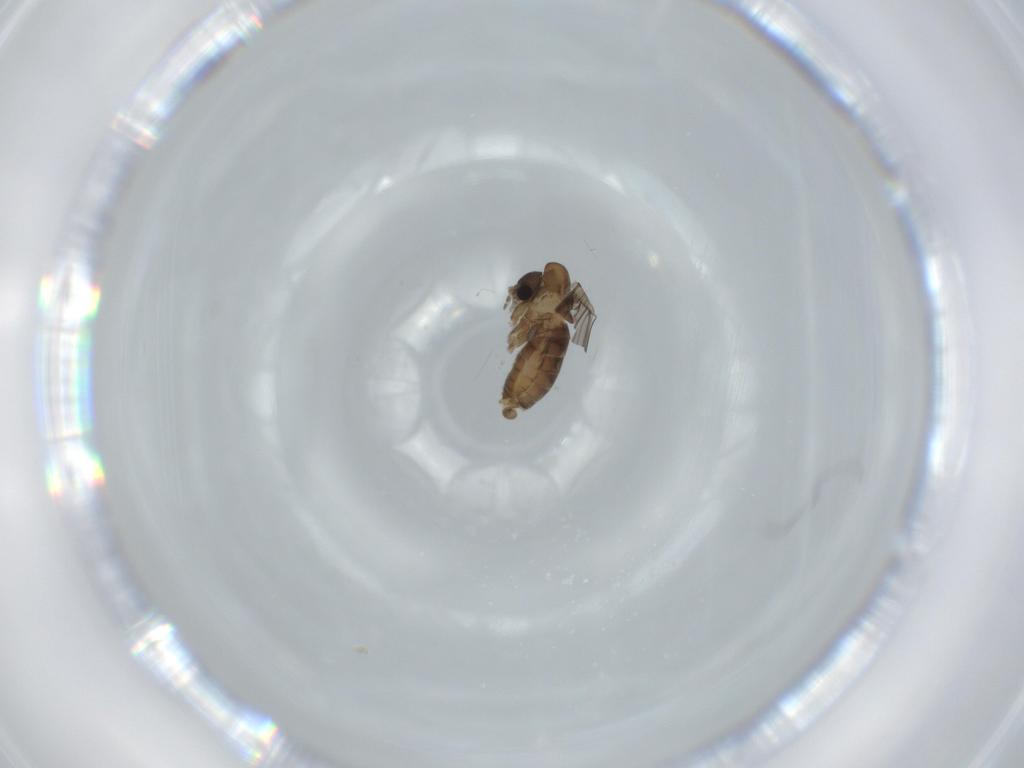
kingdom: Animalia
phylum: Arthropoda
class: Insecta
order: Diptera
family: Psychodidae
